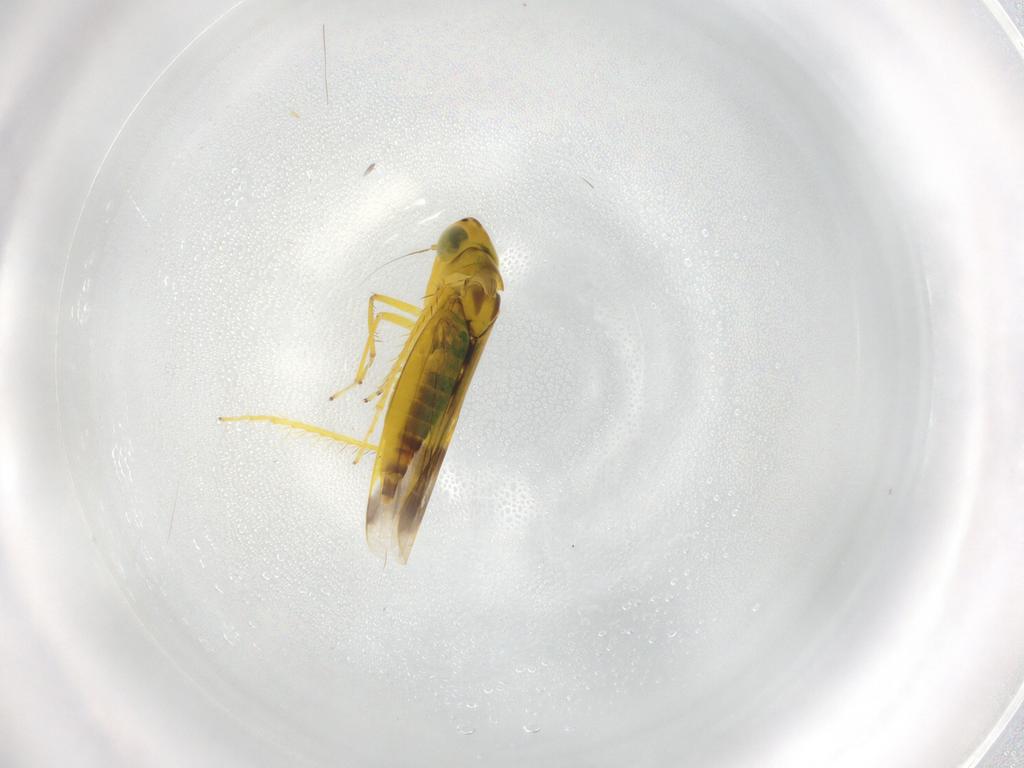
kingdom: Animalia
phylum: Arthropoda
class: Insecta
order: Hemiptera
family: Cicadellidae
